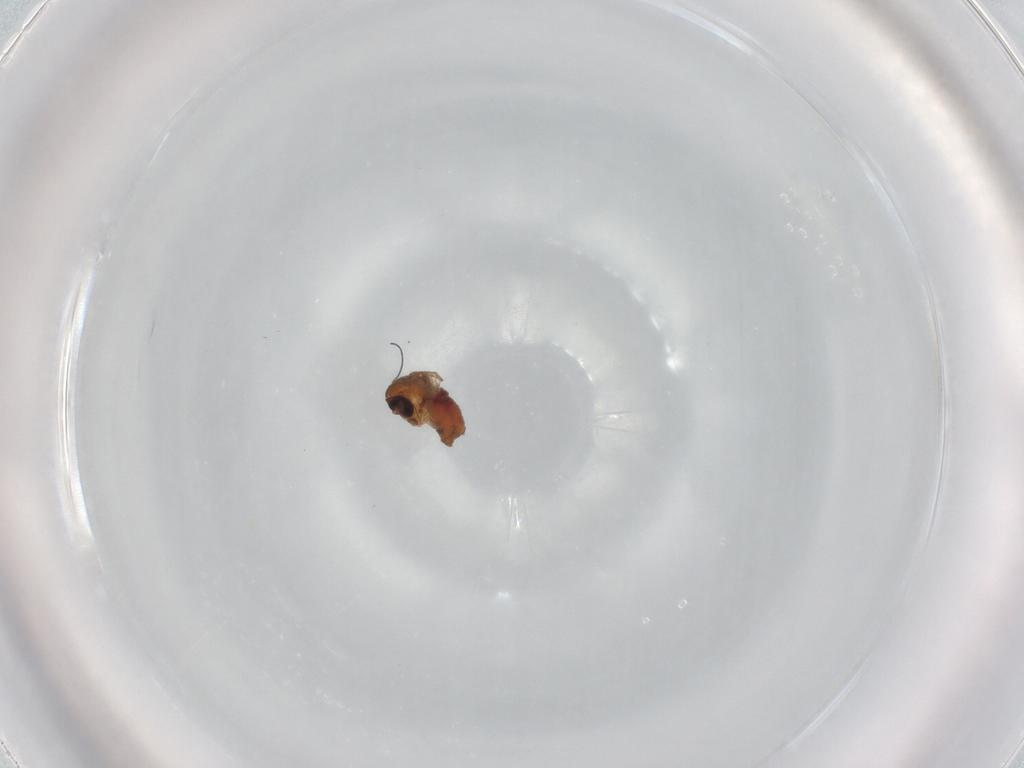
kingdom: Animalia
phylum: Arthropoda
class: Insecta
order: Diptera
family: Psychodidae
